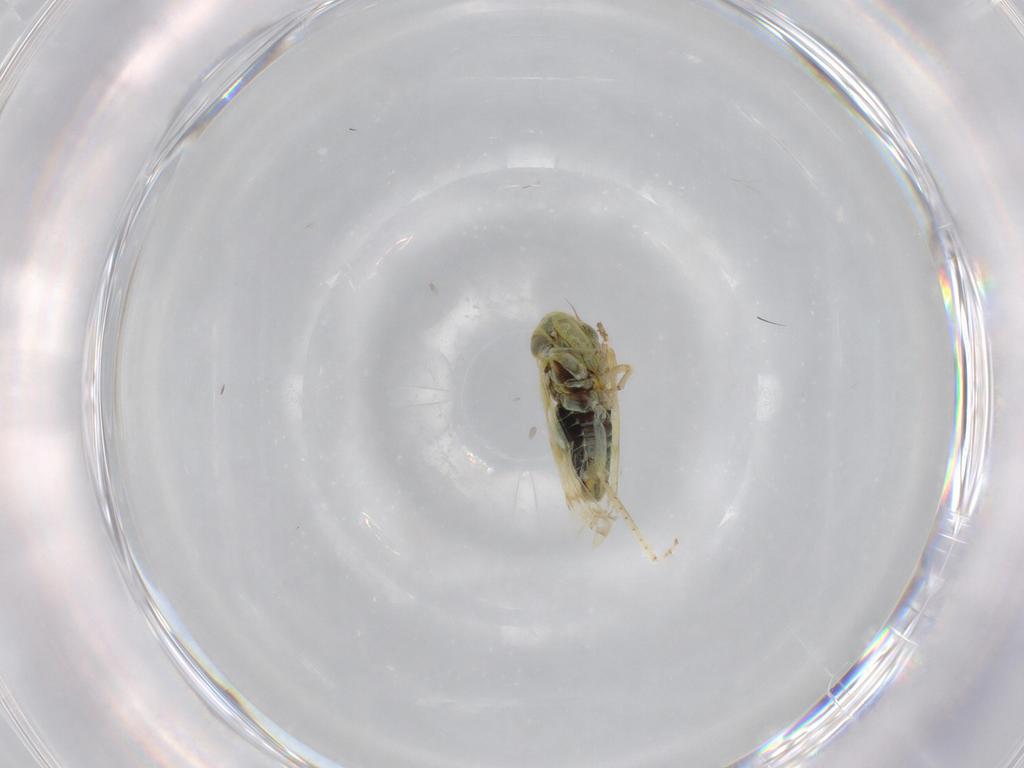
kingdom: Animalia
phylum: Arthropoda
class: Insecta
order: Hemiptera
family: Cicadellidae
